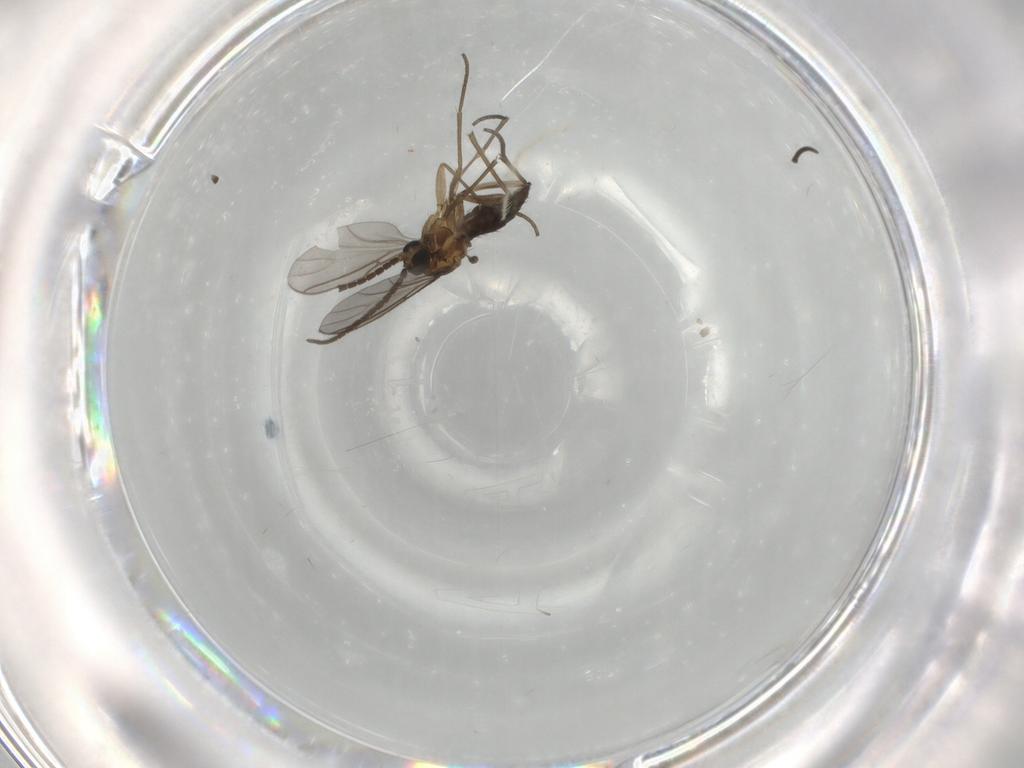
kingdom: Animalia
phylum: Arthropoda
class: Insecta
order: Diptera
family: Sciaridae
